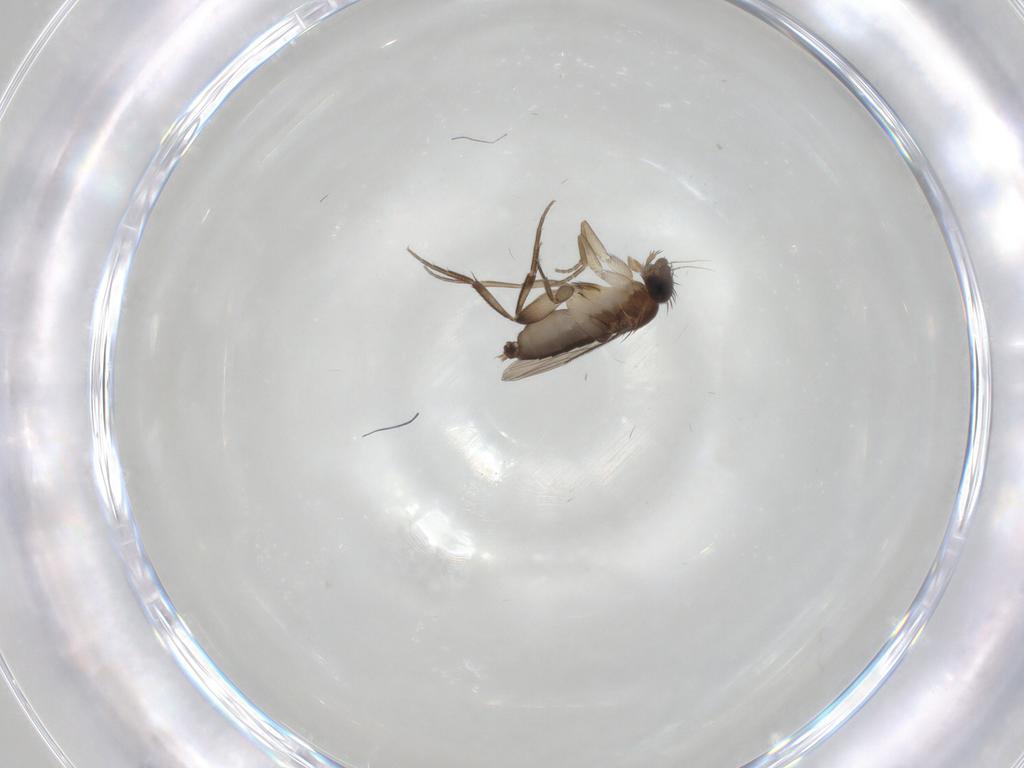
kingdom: Animalia
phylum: Arthropoda
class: Insecta
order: Diptera
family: Phoridae
